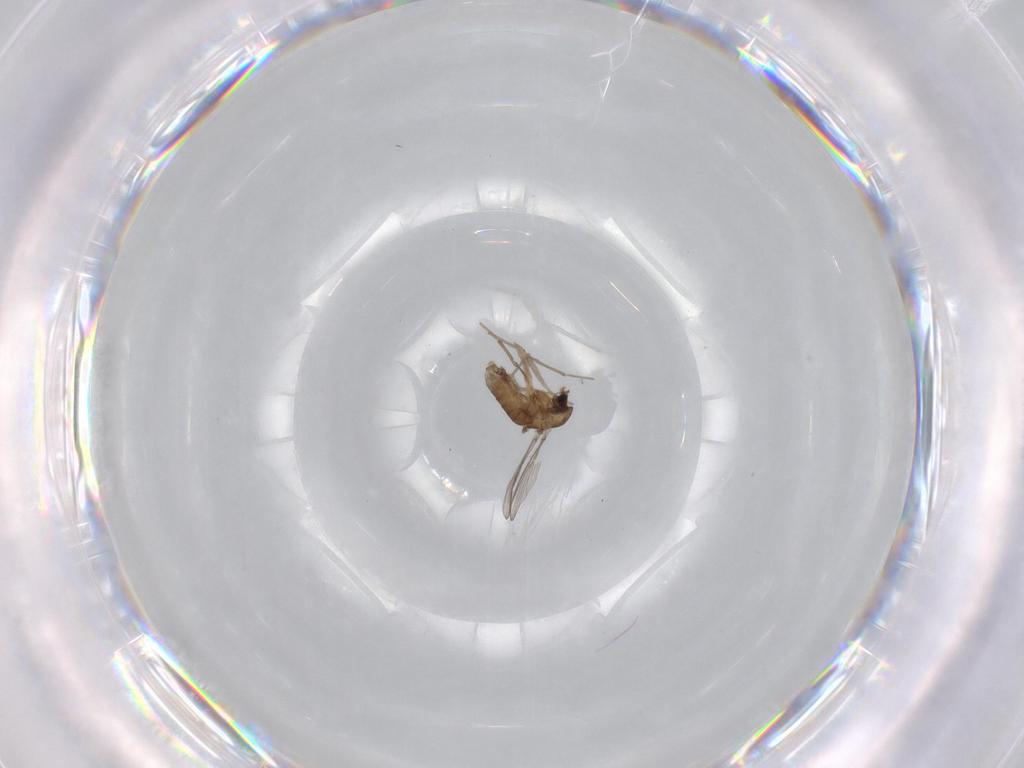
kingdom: Animalia
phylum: Arthropoda
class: Insecta
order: Diptera
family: Chironomidae
